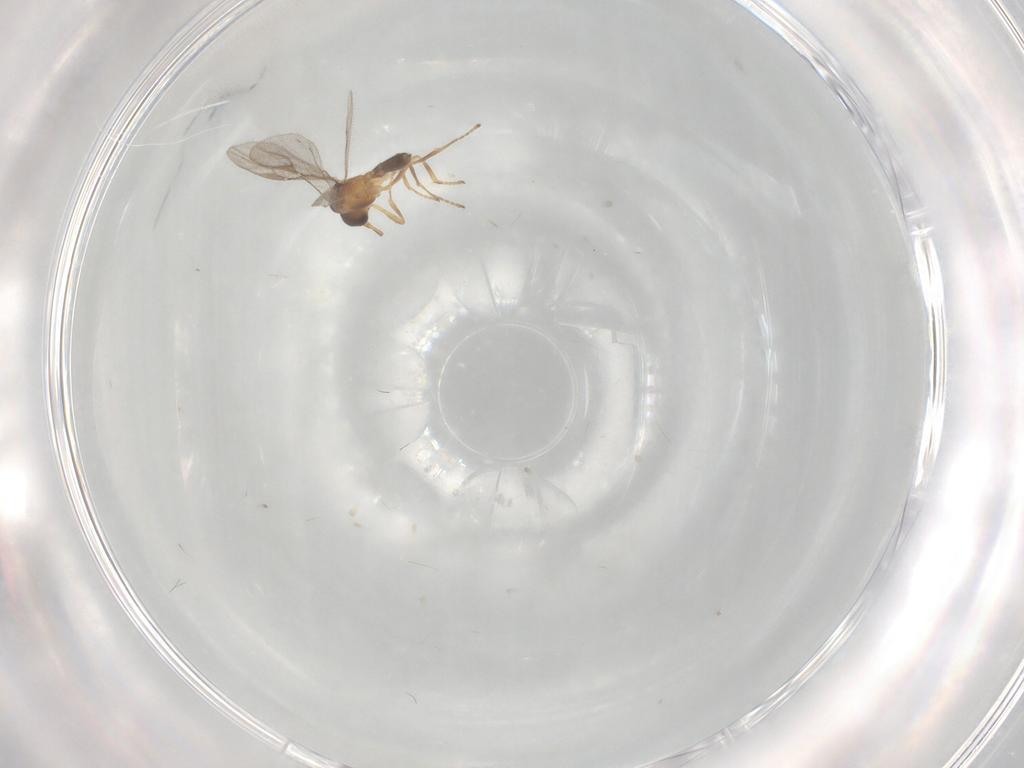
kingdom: Animalia
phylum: Arthropoda
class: Insecta
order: Hymenoptera
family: Braconidae
